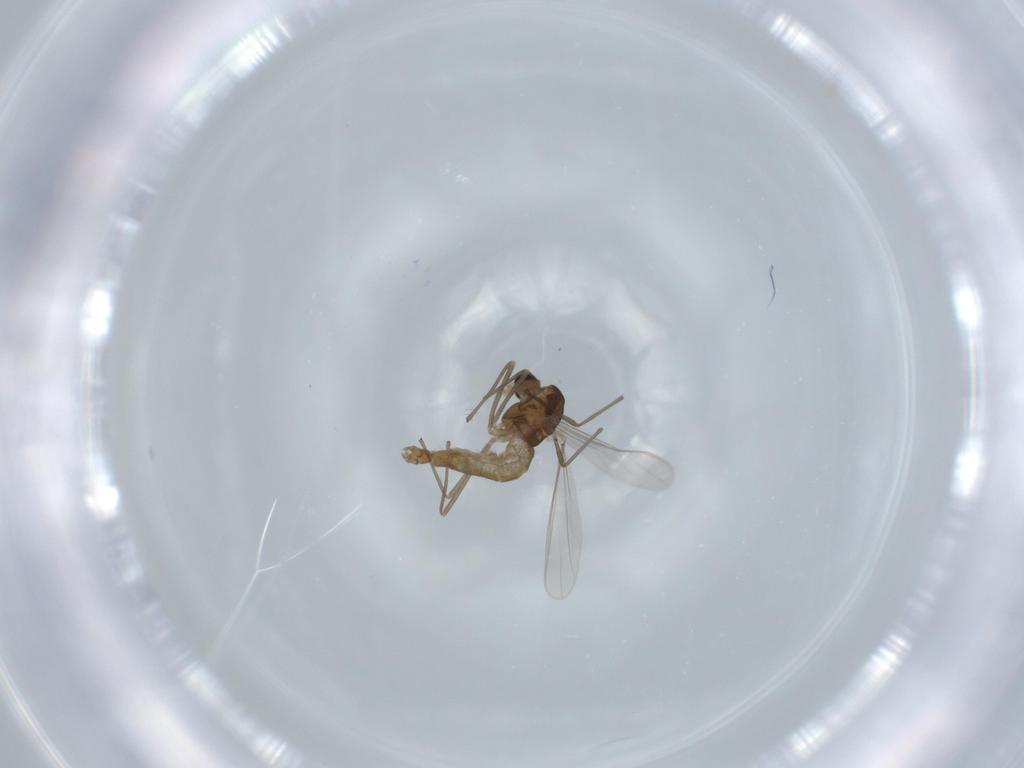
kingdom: Animalia
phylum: Arthropoda
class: Insecta
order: Diptera
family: Chironomidae
